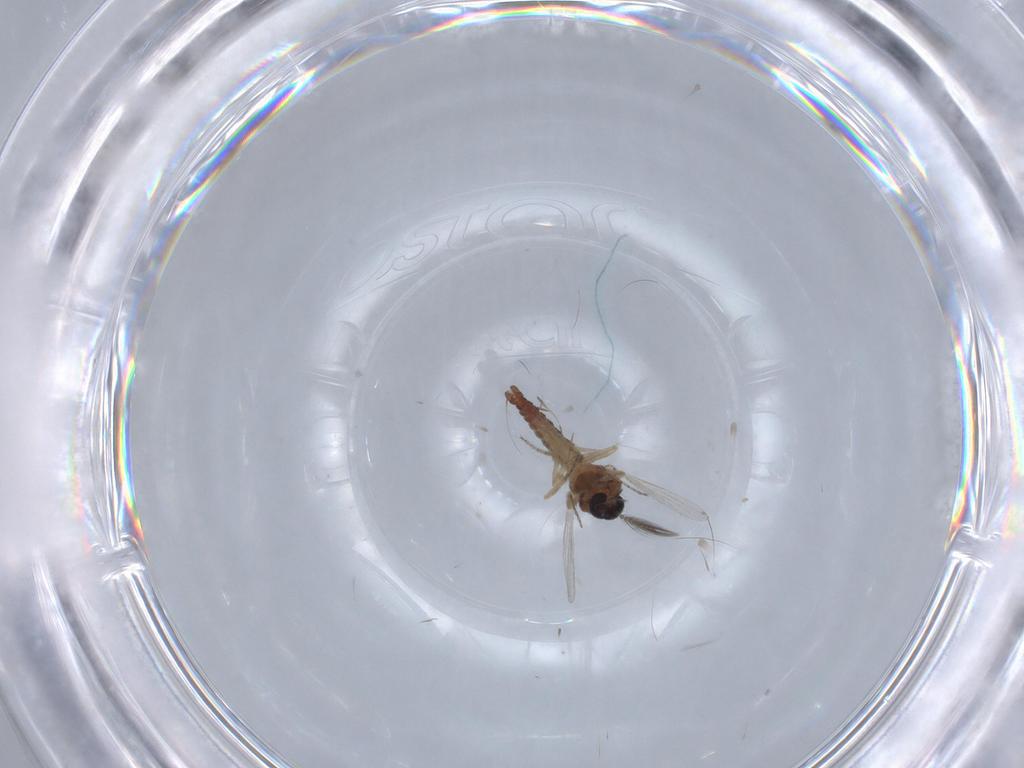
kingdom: Animalia
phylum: Arthropoda
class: Insecta
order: Diptera
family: Ceratopogonidae
